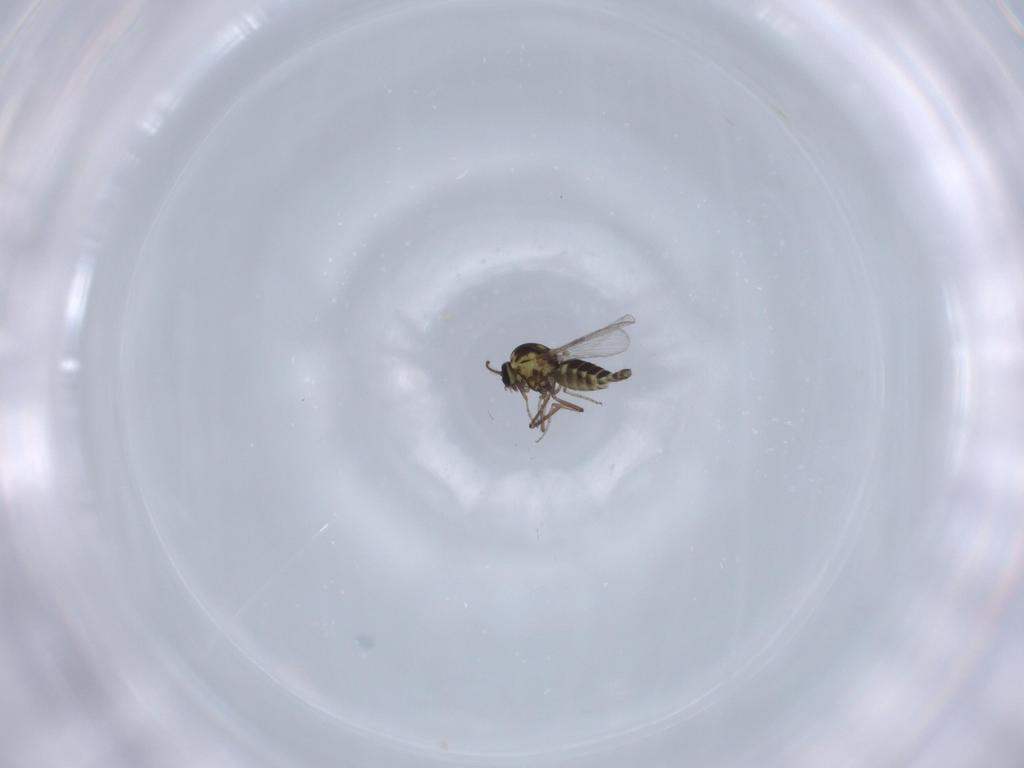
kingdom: Animalia
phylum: Arthropoda
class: Insecta
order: Diptera
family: Ceratopogonidae
